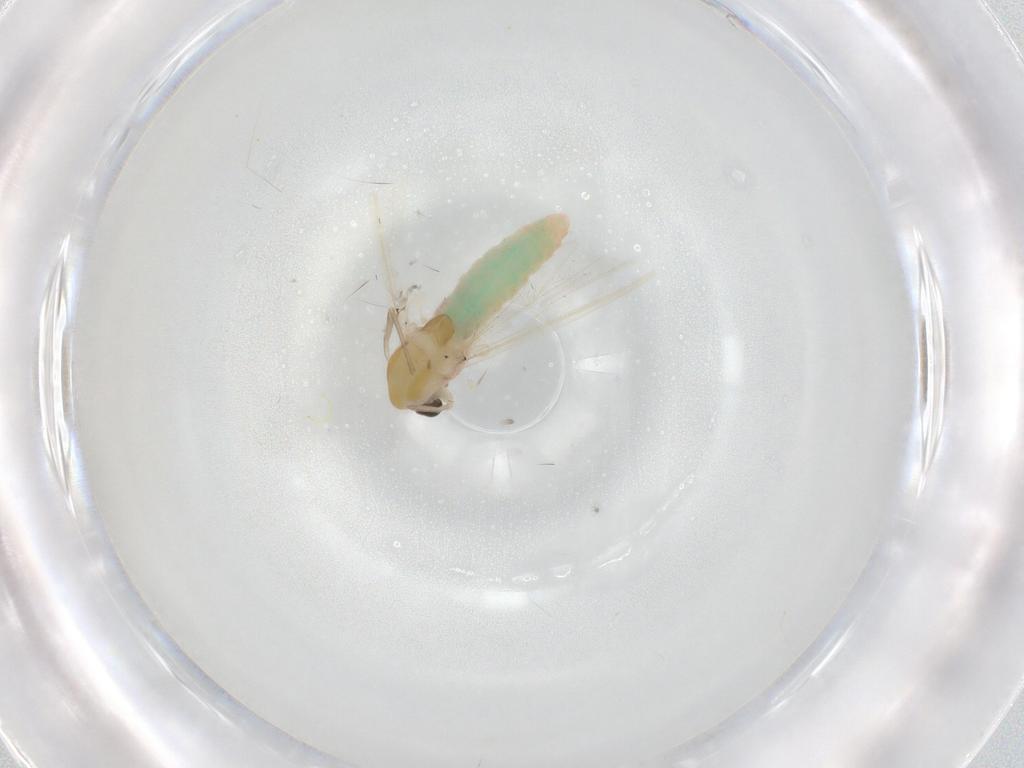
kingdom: Animalia
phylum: Arthropoda
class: Insecta
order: Diptera
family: Chironomidae
